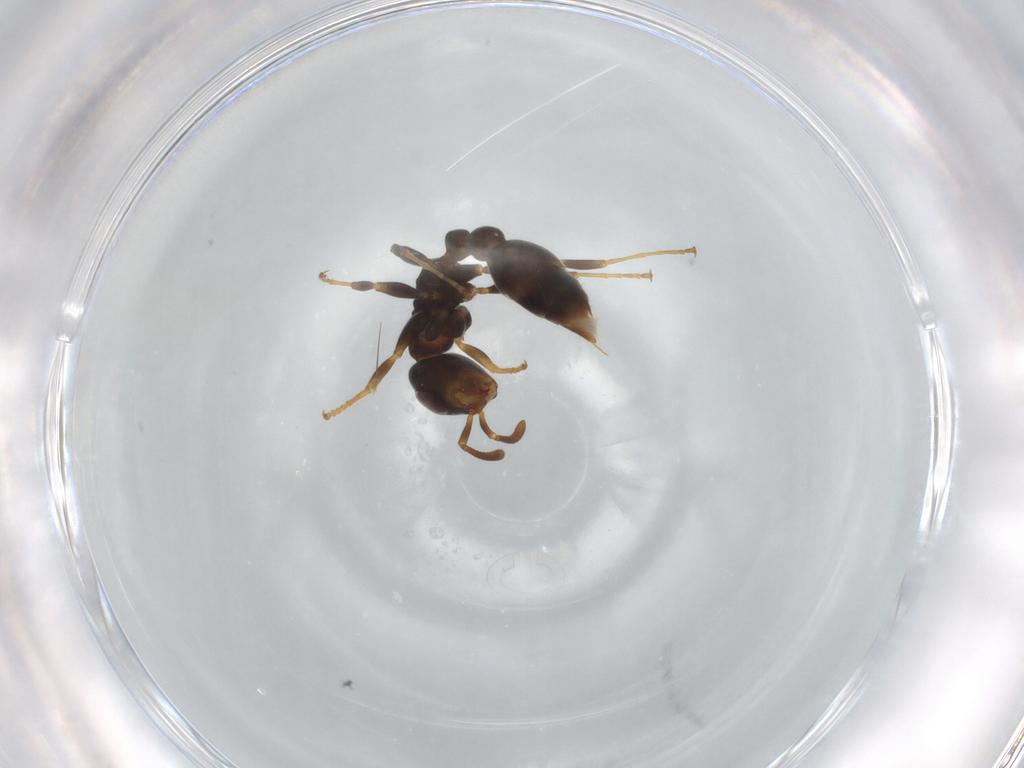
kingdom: Animalia
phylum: Arthropoda
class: Insecta
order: Hymenoptera
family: Formicidae
